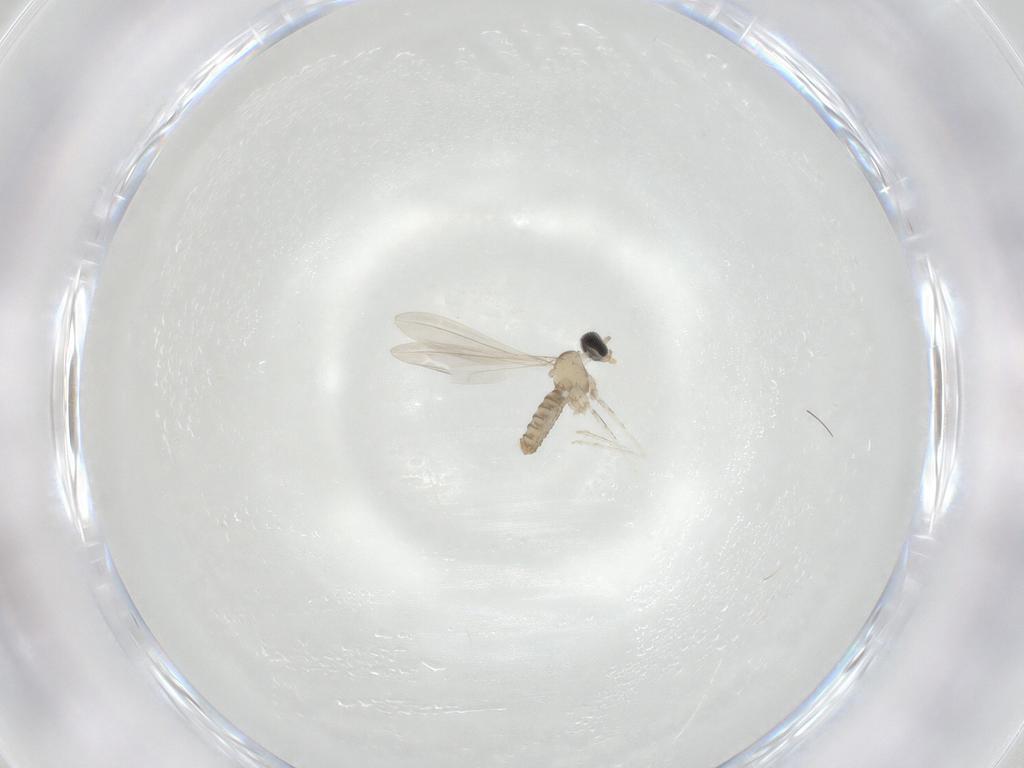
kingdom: Animalia
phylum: Arthropoda
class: Insecta
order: Diptera
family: Cecidomyiidae
